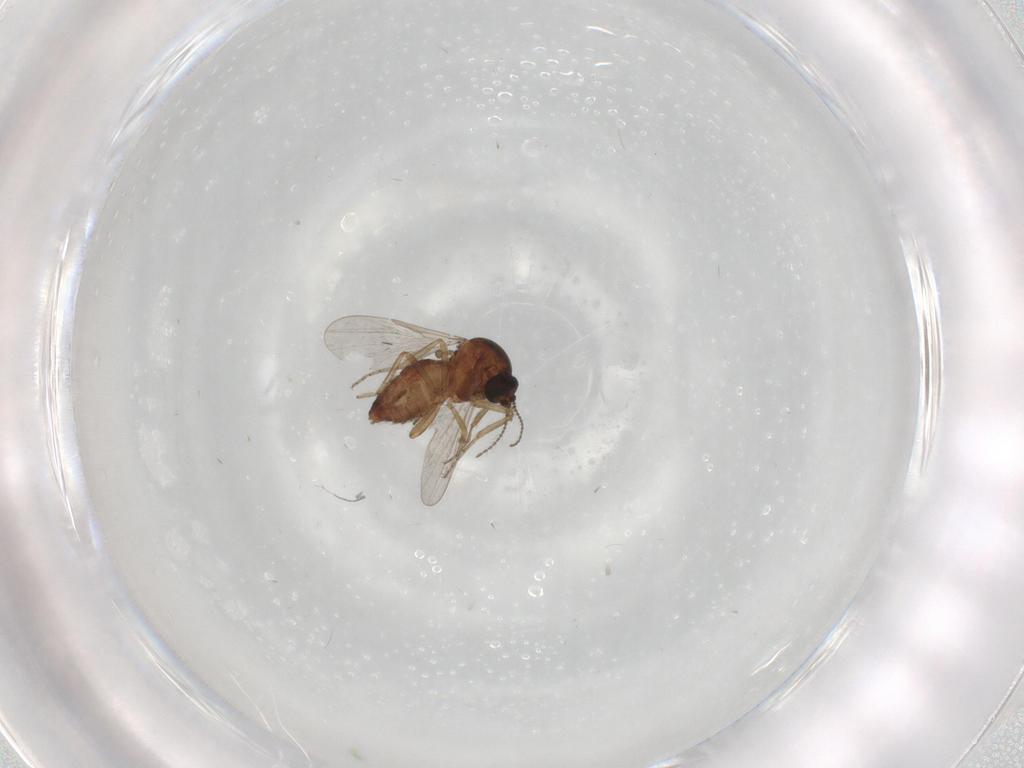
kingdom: Animalia
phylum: Arthropoda
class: Insecta
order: Diptera
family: Ceratopogonidae
